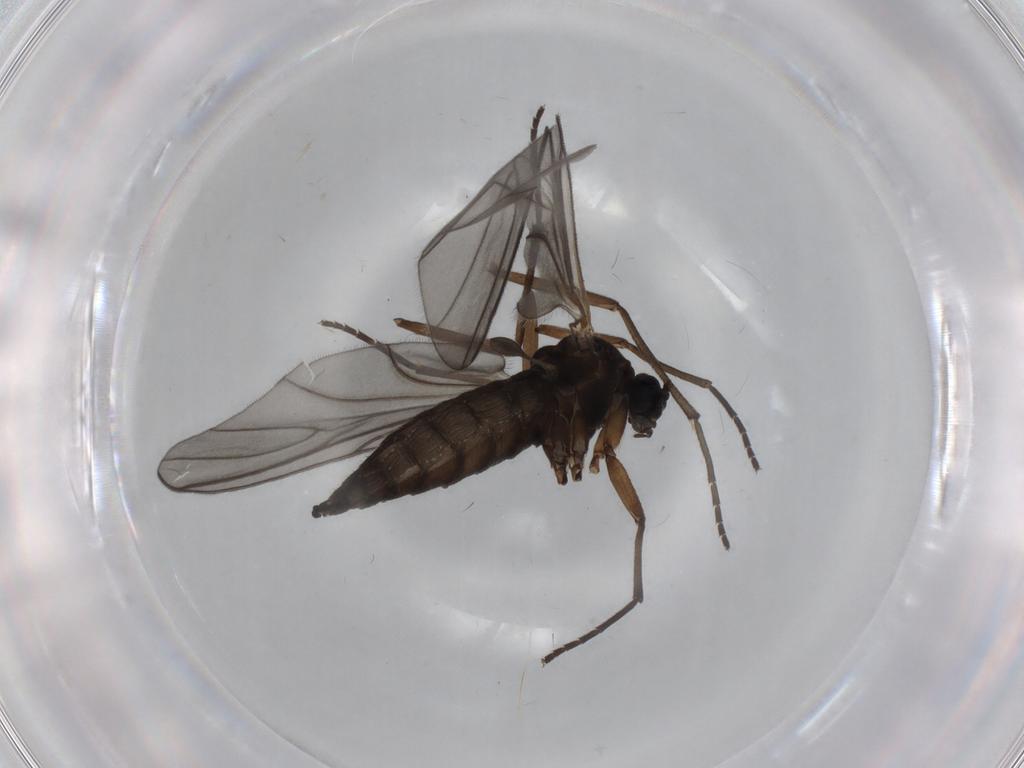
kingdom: Animalia
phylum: Arthropoda
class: Insecta
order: Diptera
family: Sciaridae
